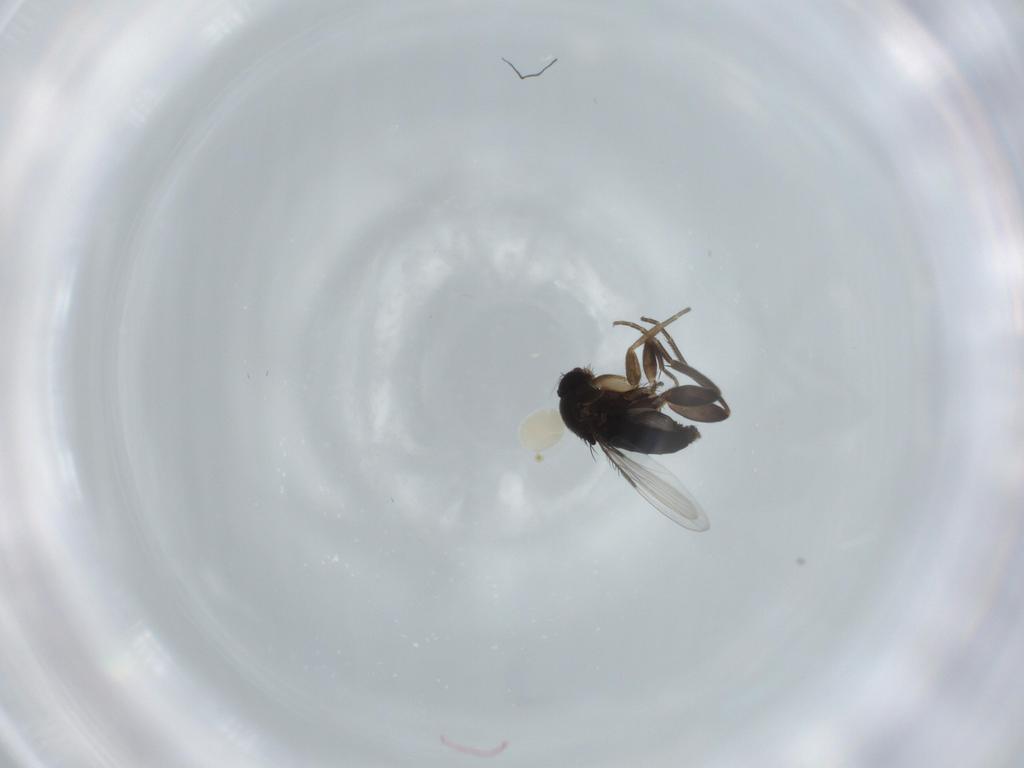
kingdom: Animalia
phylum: Arthropoda
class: Insecta
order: Diptera
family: Phoridae
